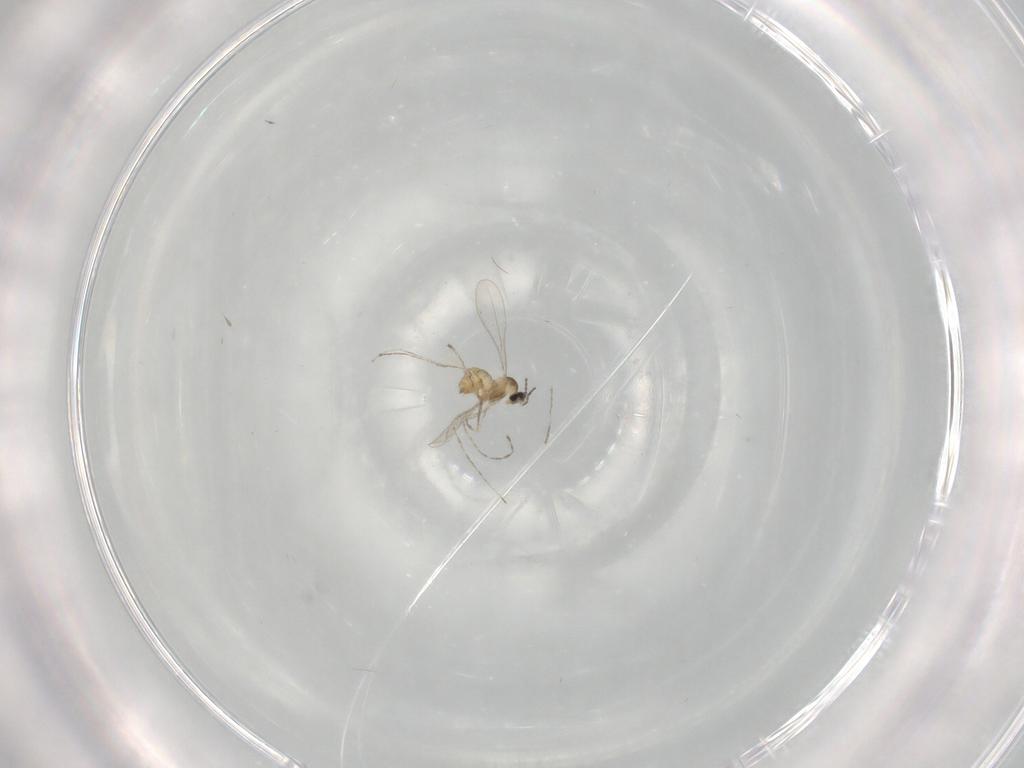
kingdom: Animalia
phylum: Arthropoda
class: Insecta
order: Diptera
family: Cecidomyiidae
